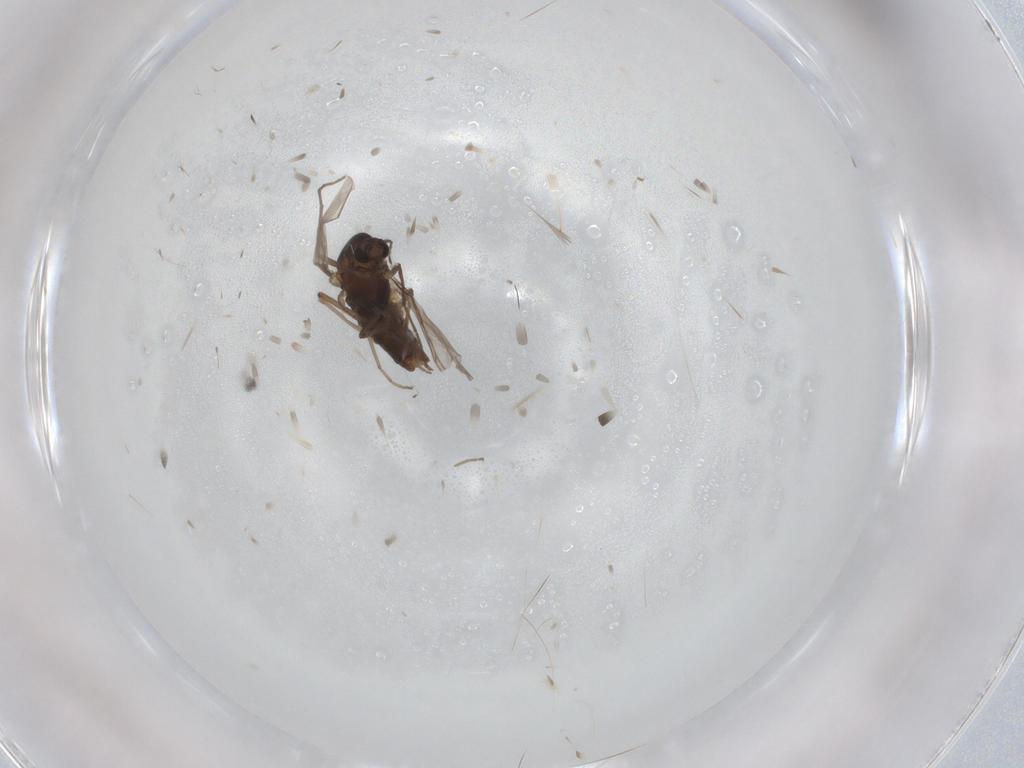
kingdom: Animalia
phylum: Arthropoda
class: Insecta
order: Diptera
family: Chironomidae
